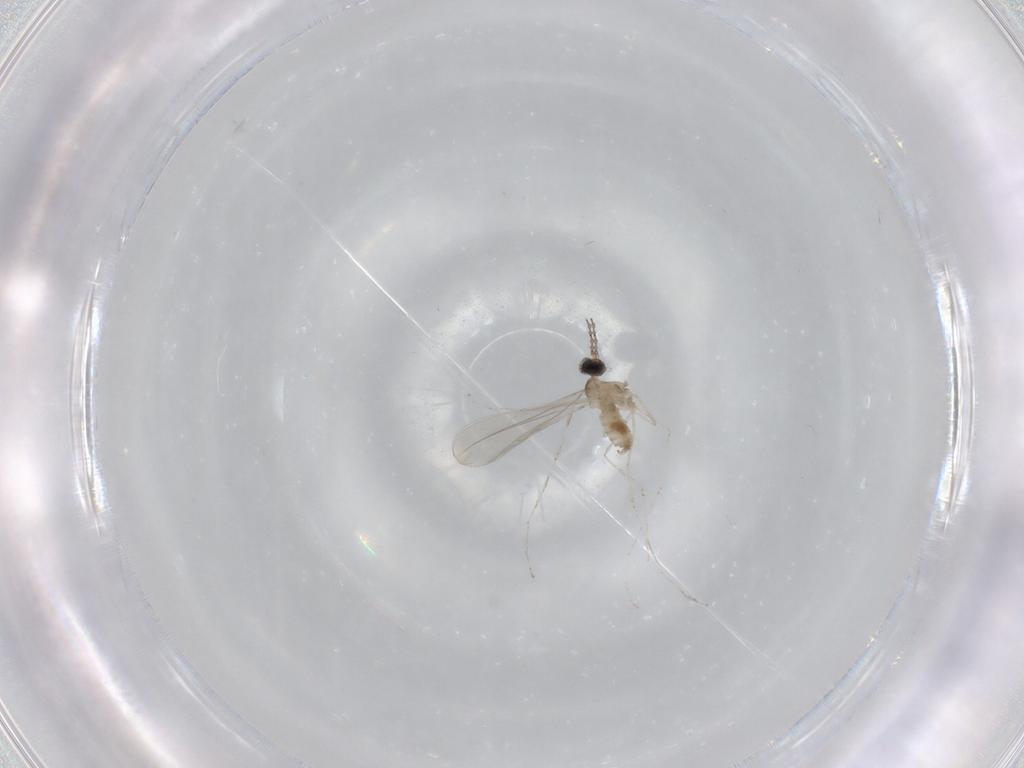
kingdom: Animalia
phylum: Arthropoda
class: Insecta
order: Diptera
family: Cecidomyiidae
